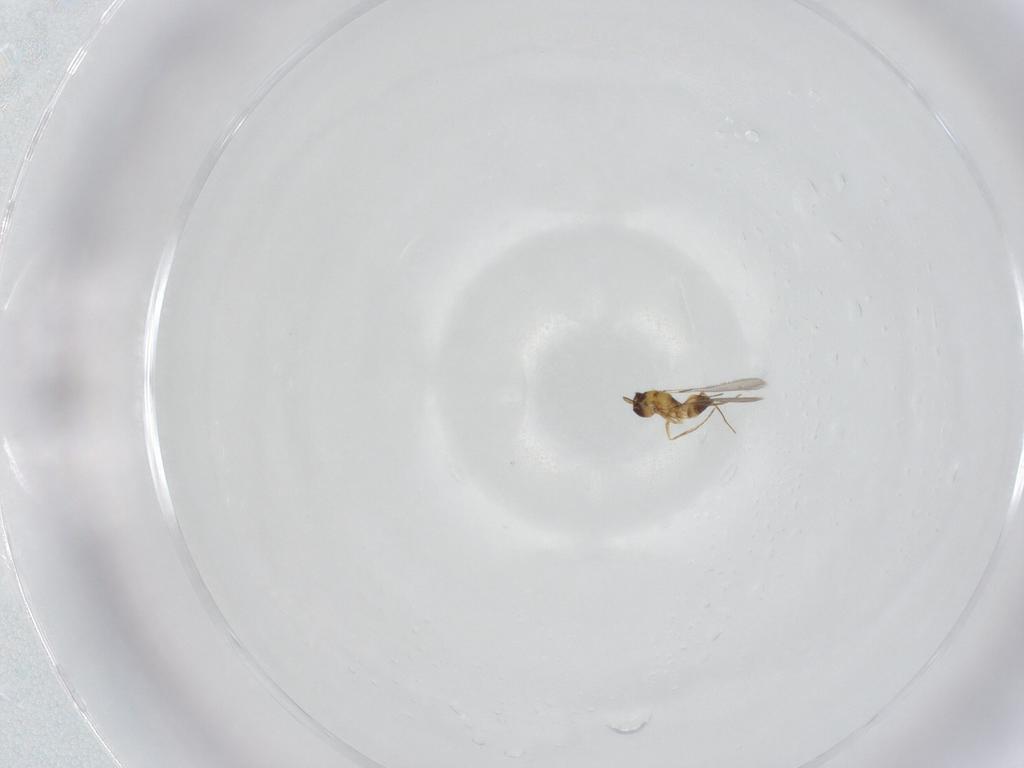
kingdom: Animalia
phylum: Arthropoda
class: Insecta
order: Hymenoptera
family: Mymaridae
